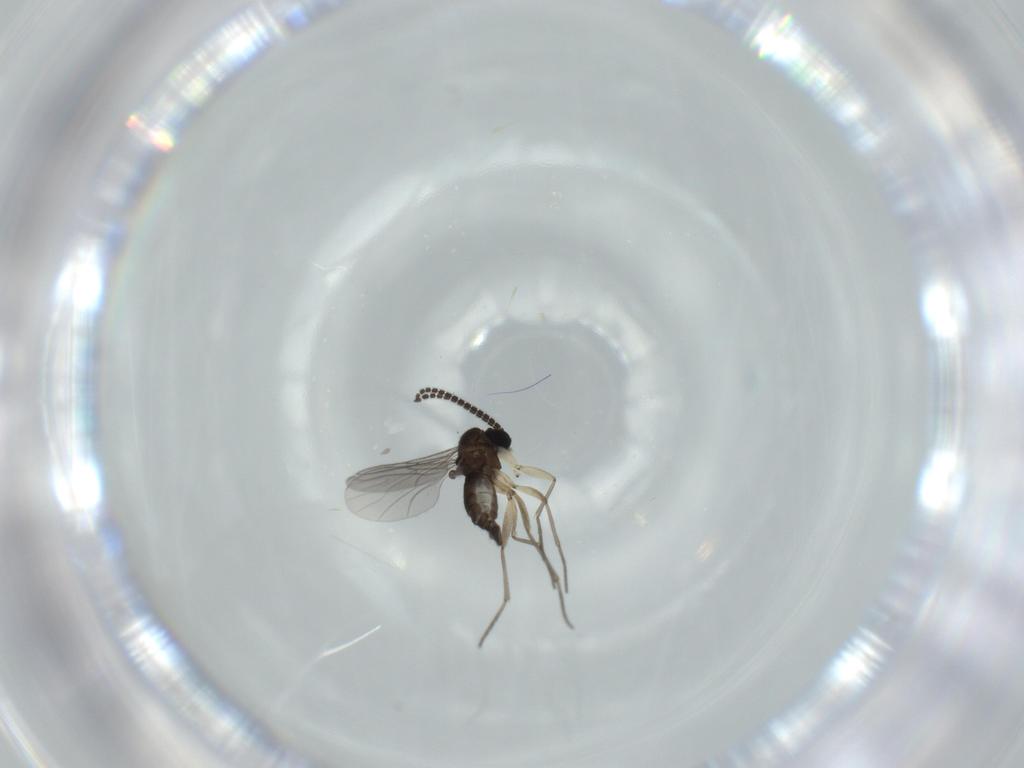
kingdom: Animalia
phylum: Arthropoda
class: Insecta
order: Diptera
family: Sciaridae
